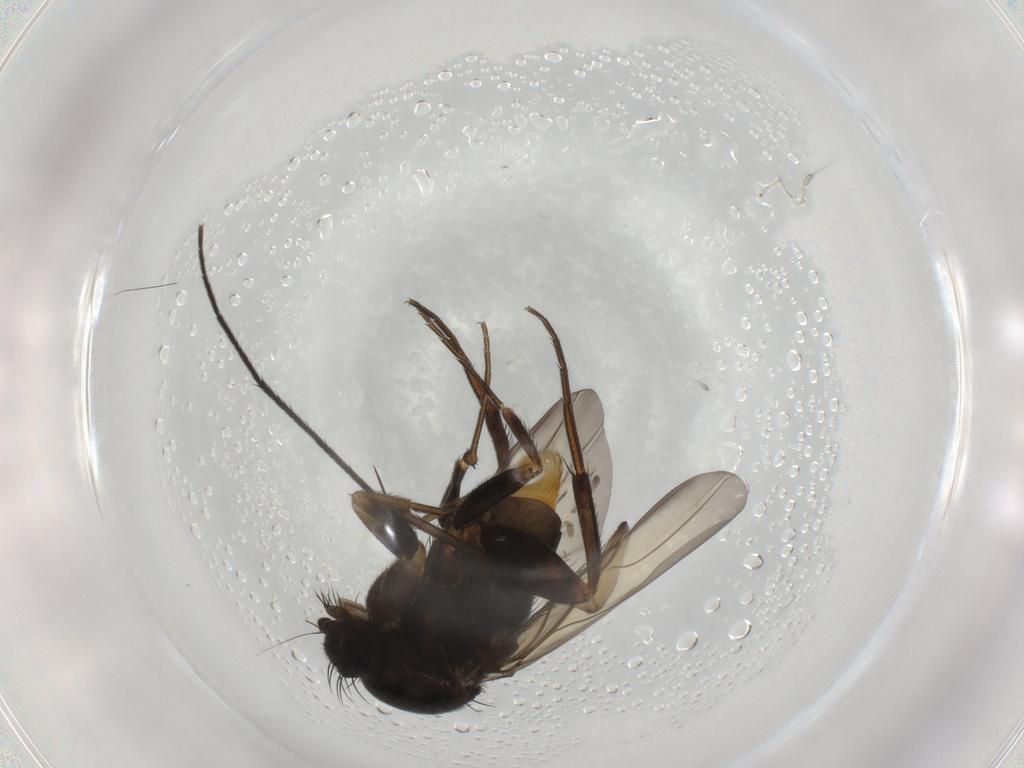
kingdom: Animalia
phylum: Arthropoda
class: Insecta
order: Diptera
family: Phoridae
